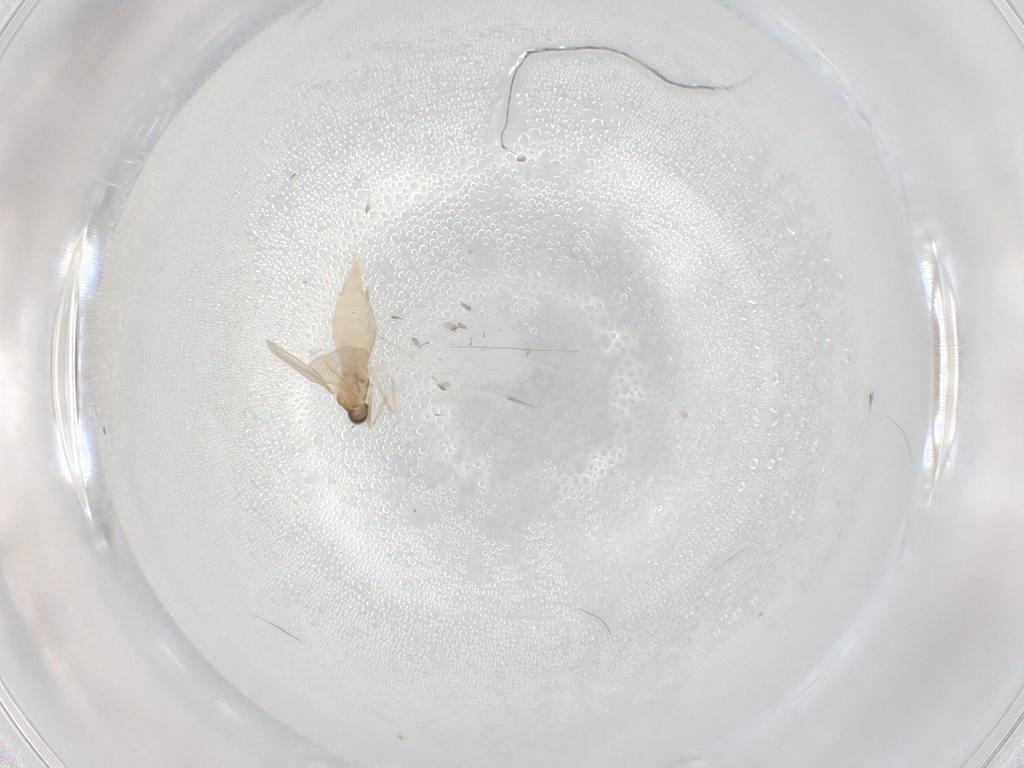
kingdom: Animalia
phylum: Arthropoda
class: Insecta
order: Diptera
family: Cecidomyiidae
